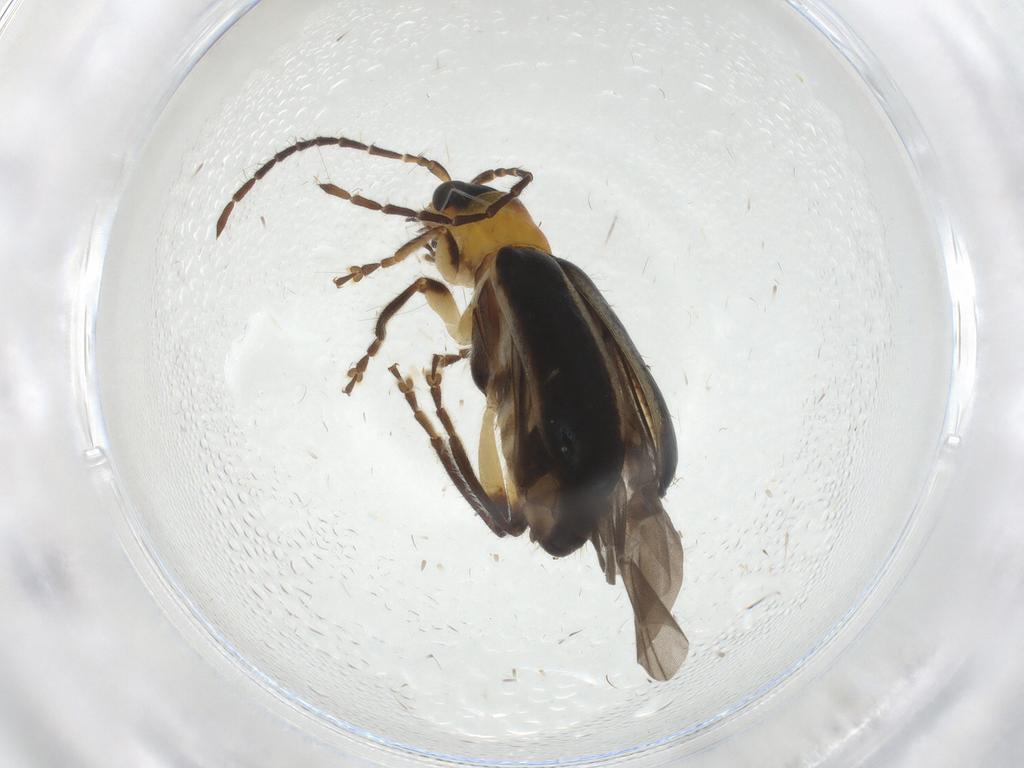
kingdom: Animalia
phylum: Arthropoda
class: Insecta
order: Coleoptera
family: Chrysomelidae
